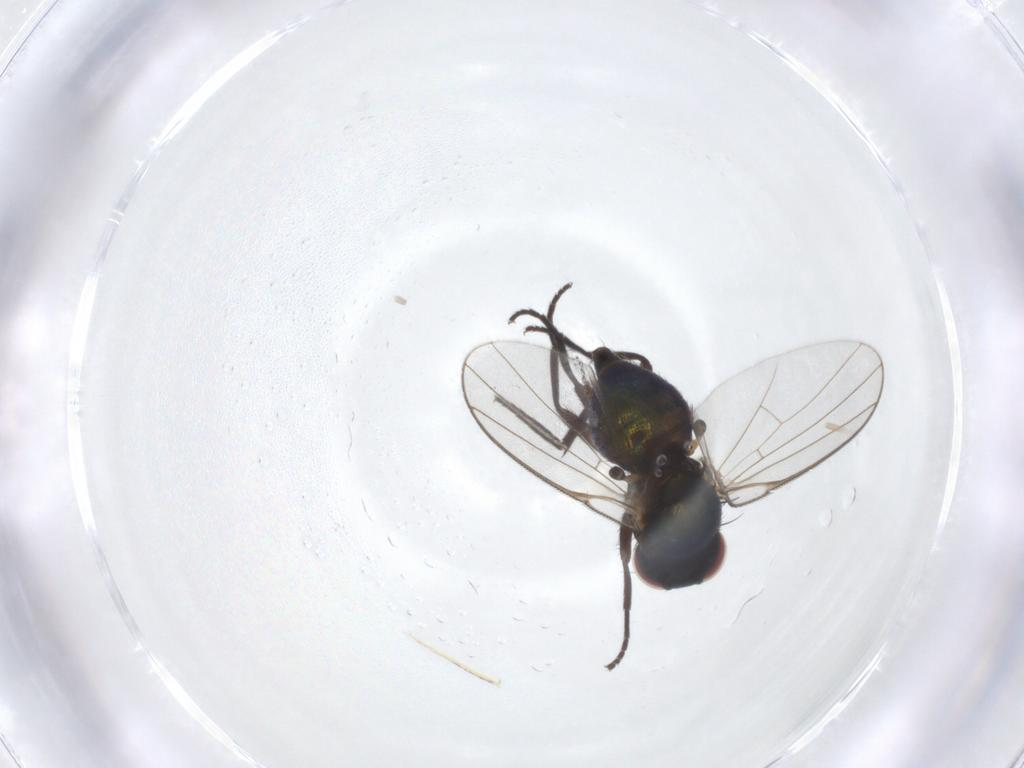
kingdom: Animalia
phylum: Arthropoda
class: Insecta
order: Diptera
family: Agromyzidae
